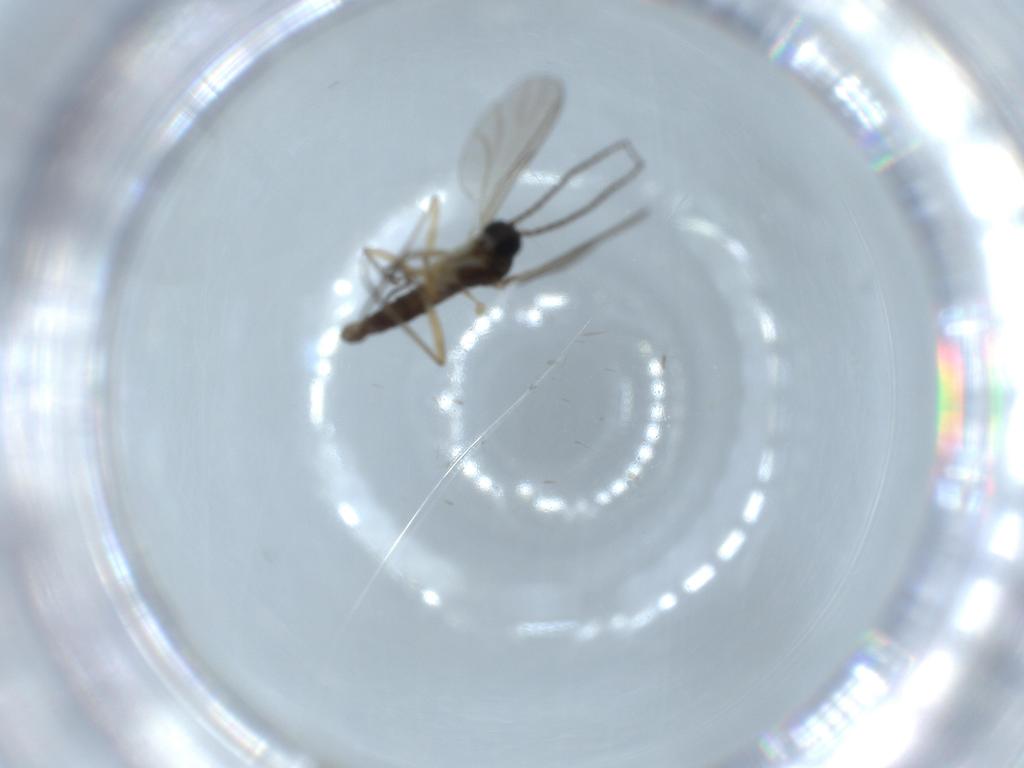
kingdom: Animalia
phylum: Arthropoda
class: Insecta
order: Diptera
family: Sciaridae
